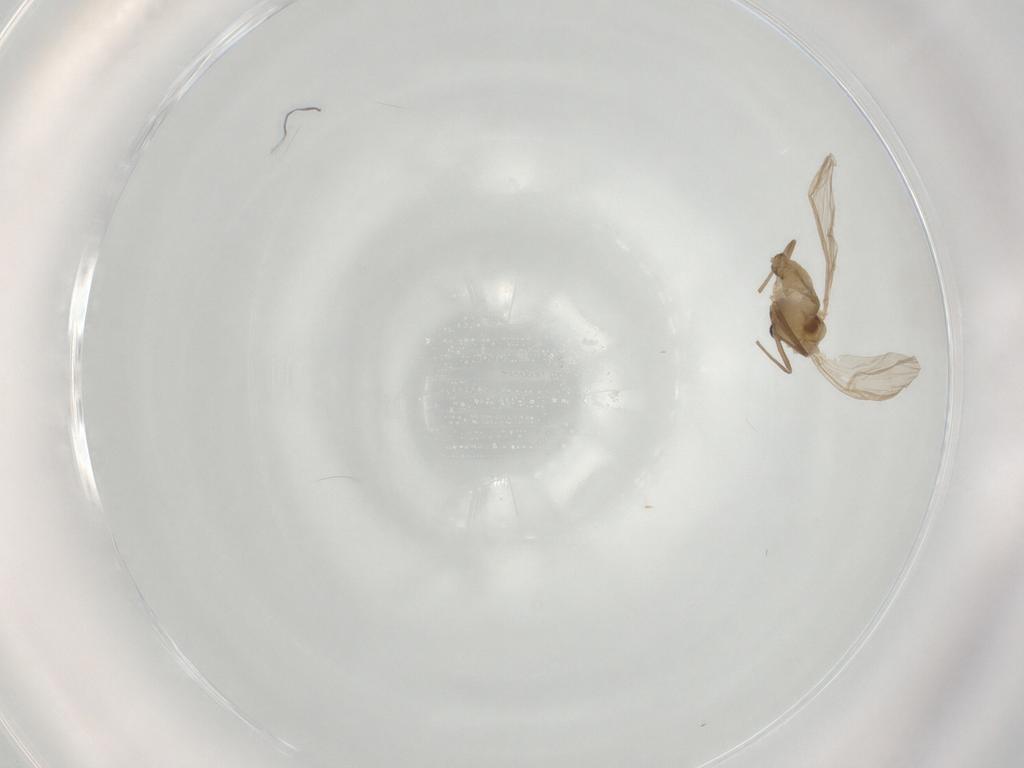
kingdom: Animalia
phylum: Arthropoda
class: Insecta
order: Diptera
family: Chironomidae
